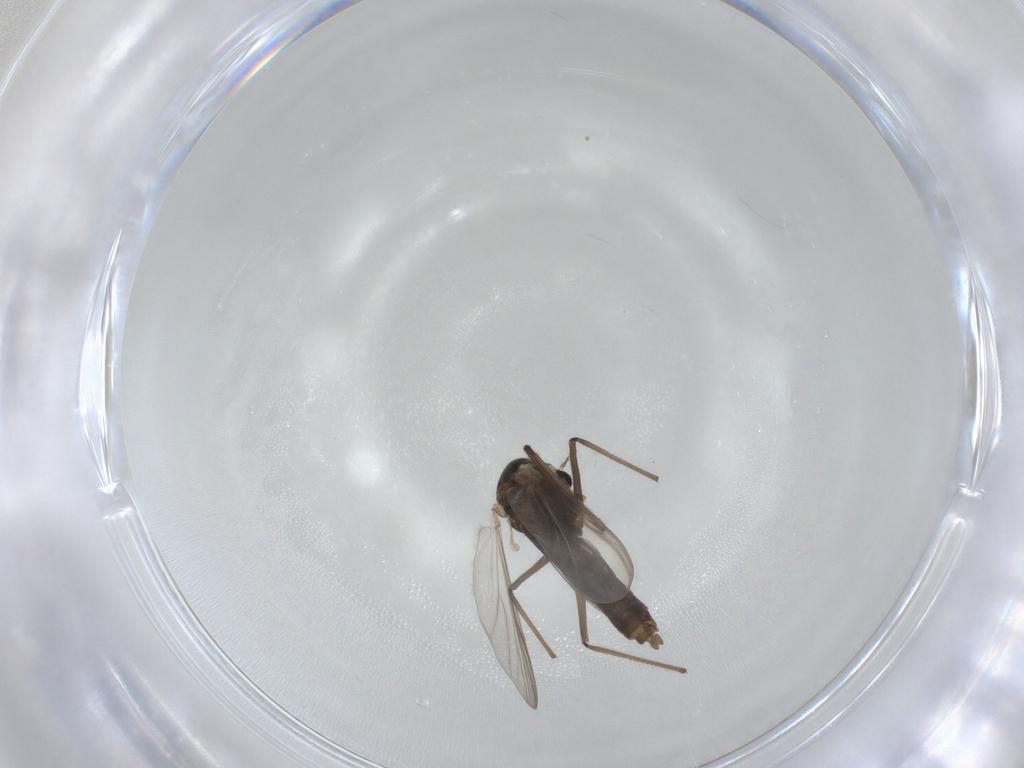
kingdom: Animalia
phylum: Arthropoda
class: Insecta
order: Diptera
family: Chironomidae
